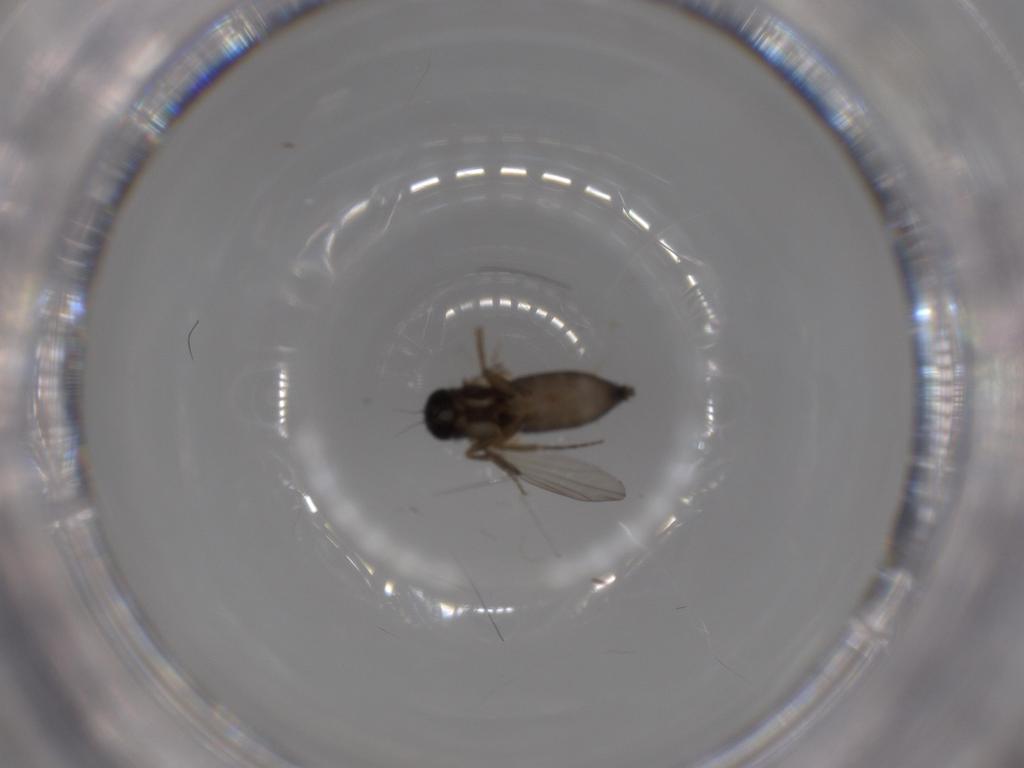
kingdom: Animalia
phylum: Arthropoda
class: Insecta
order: Diptera
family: Phoridae
